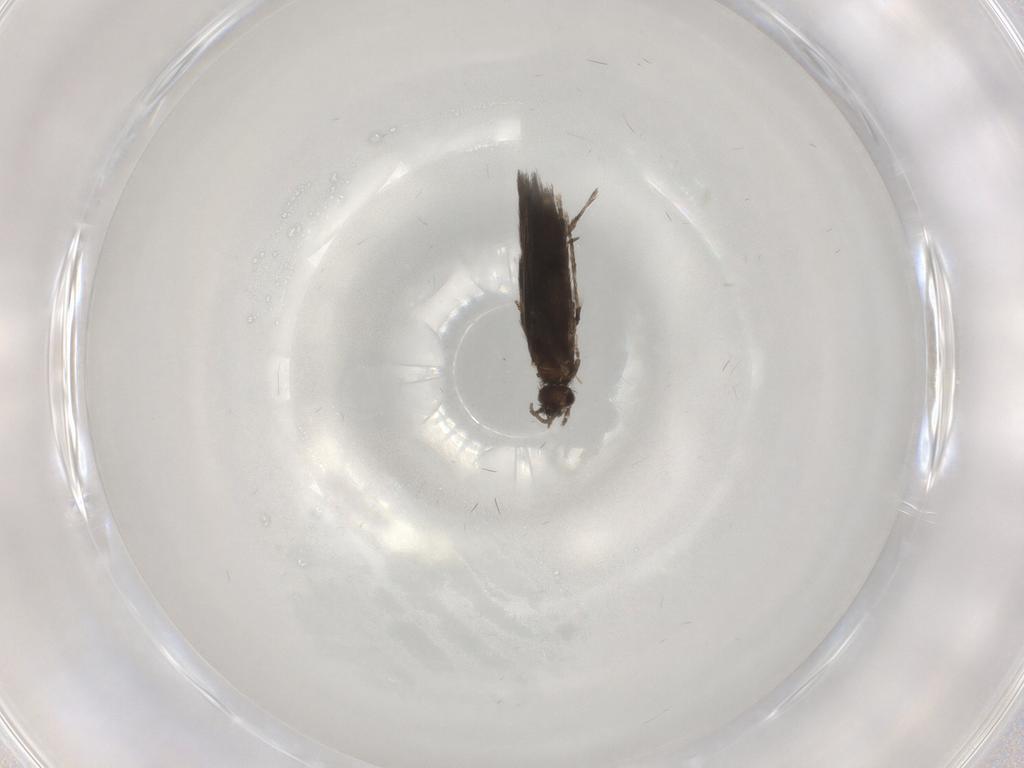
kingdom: Animalia
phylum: Arthropoda
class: Insecta
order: Trichoptera
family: Hydroptilidae
